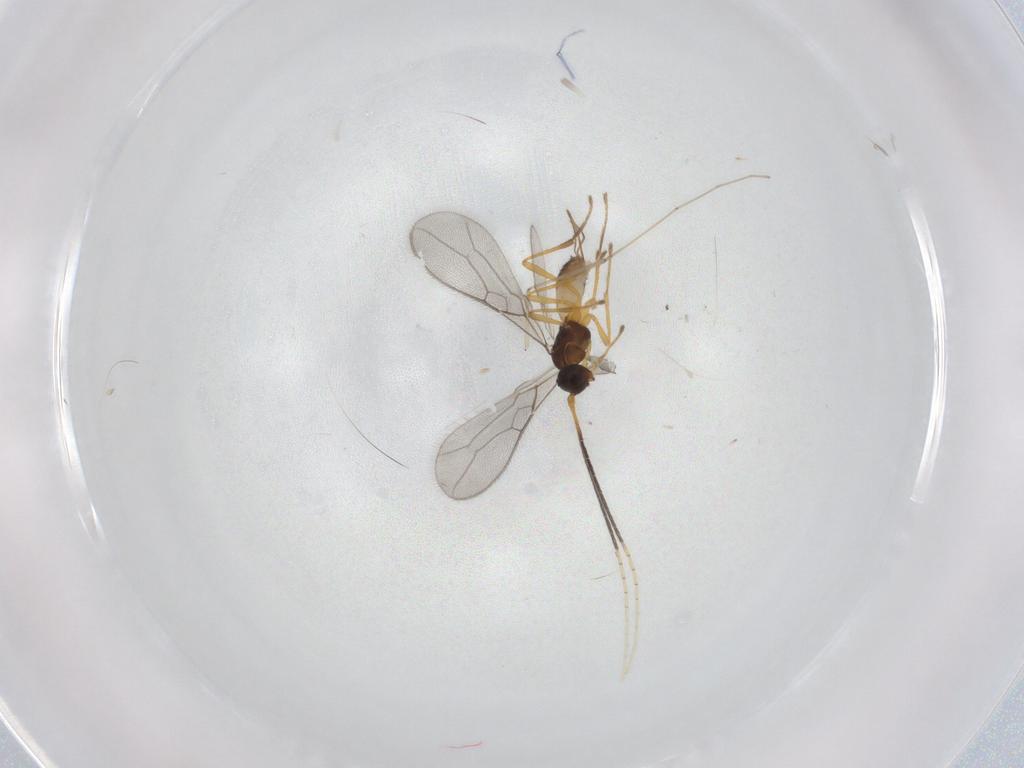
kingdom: Animalia
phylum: Arthropoda
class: Insecta
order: Hymenoptera
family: Braconidae
